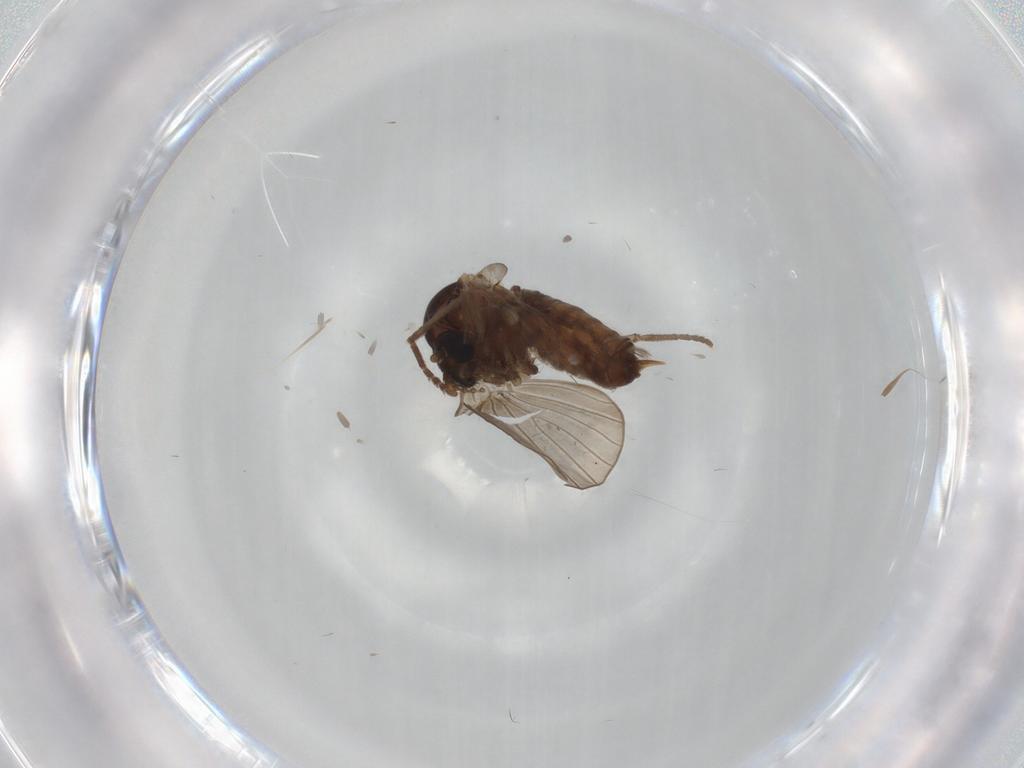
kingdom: Animalia
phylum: Arthropoda
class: Insecta
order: Diptera
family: Psychodidae
